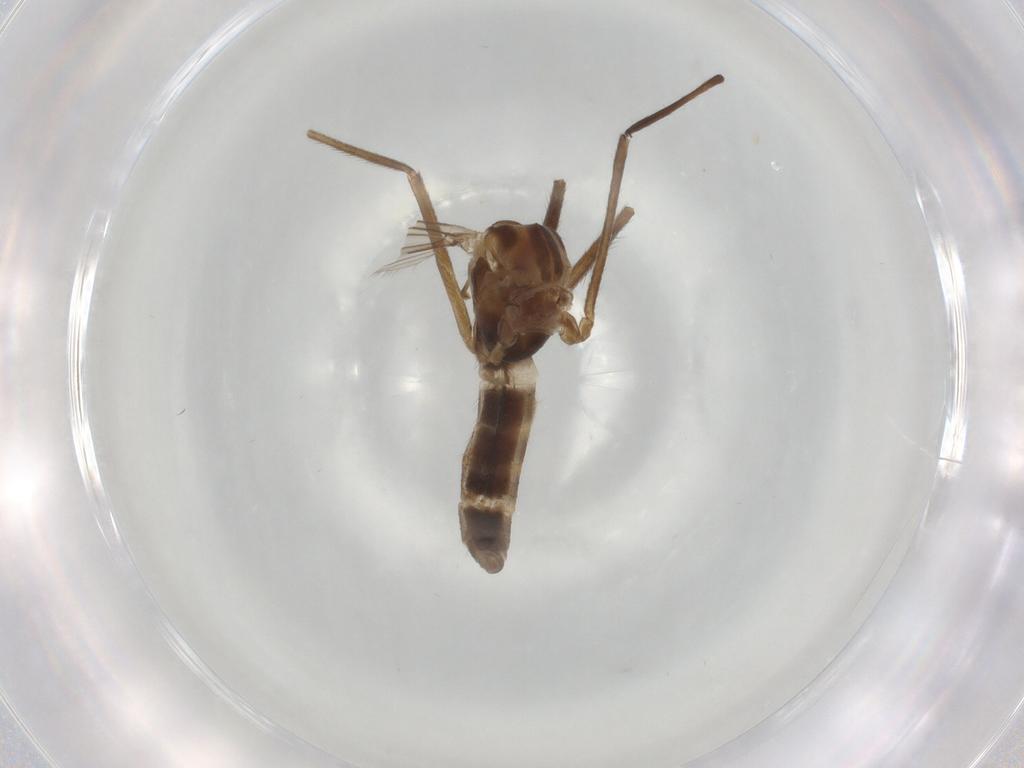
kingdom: Animalia
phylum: Arthropoda
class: Insecta
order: Diptera
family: Chironomidae
